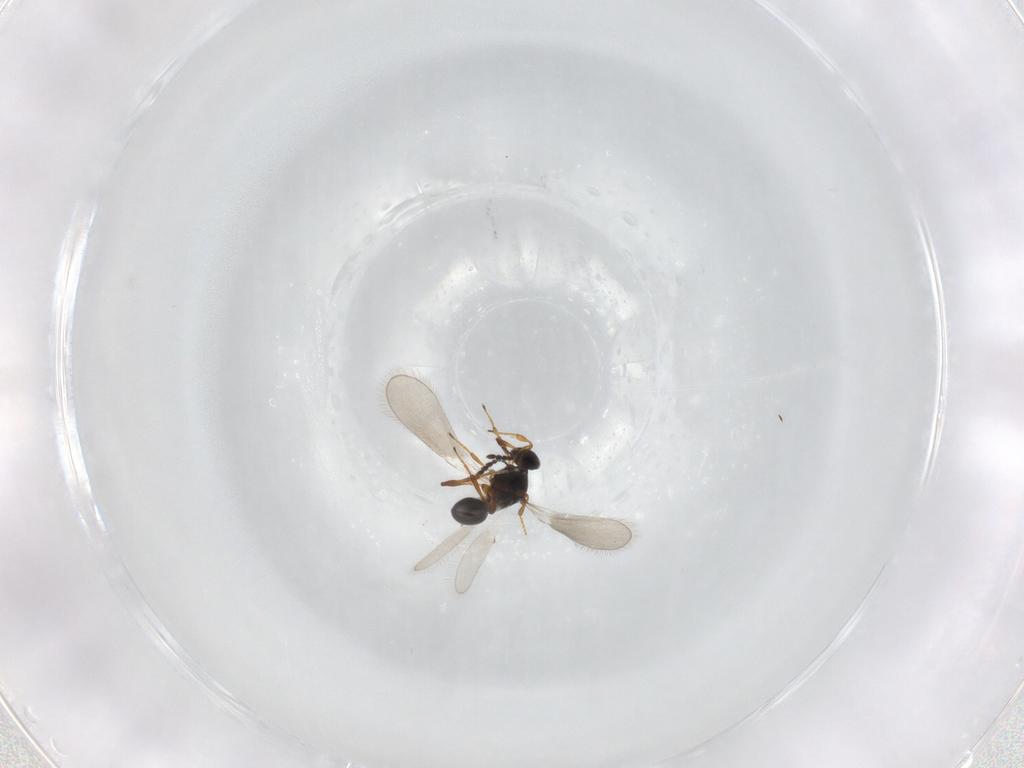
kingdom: Animalia
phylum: Arthropoda
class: Insecta
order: Hymenoptera
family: Platygastridae
